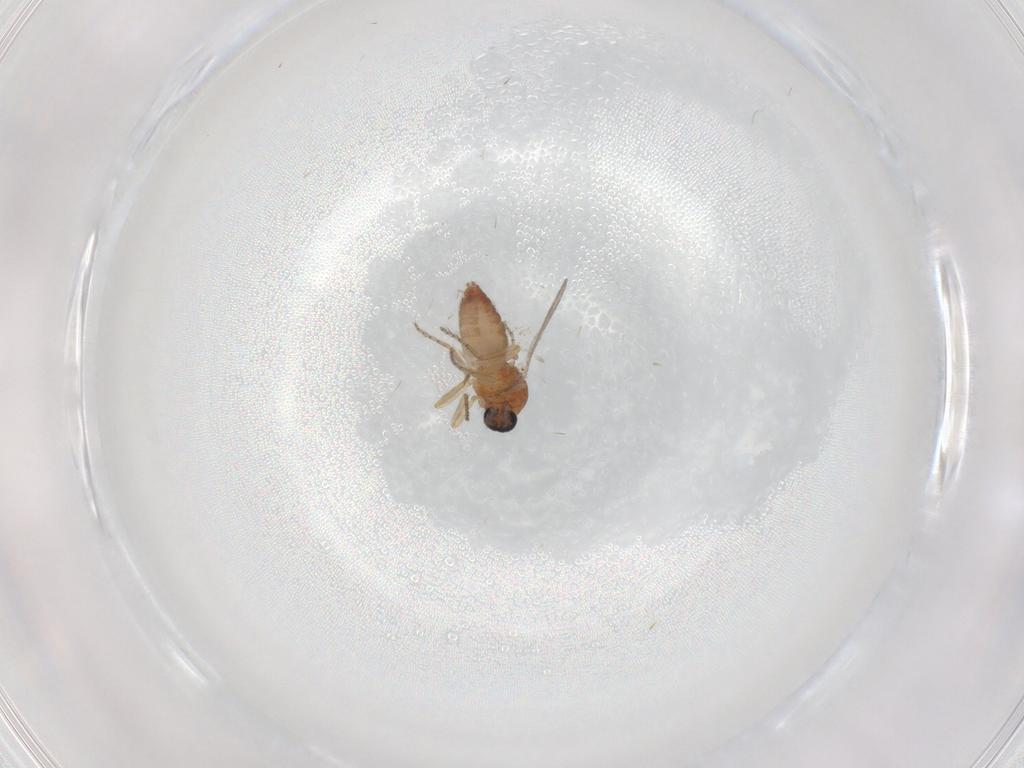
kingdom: Animalia
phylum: Arthropoda
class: Insecta
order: Diptera
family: Ceratopogonidae
